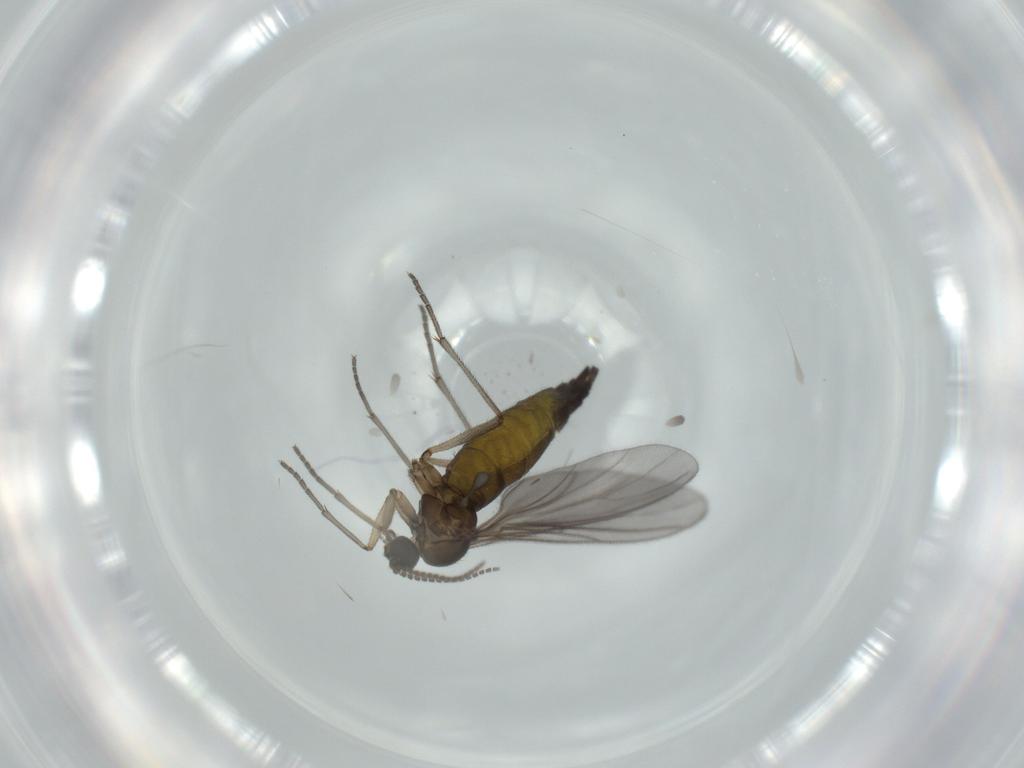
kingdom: Animalia
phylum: Arthropoda
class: Insecta
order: Diptera
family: Sciaridae
